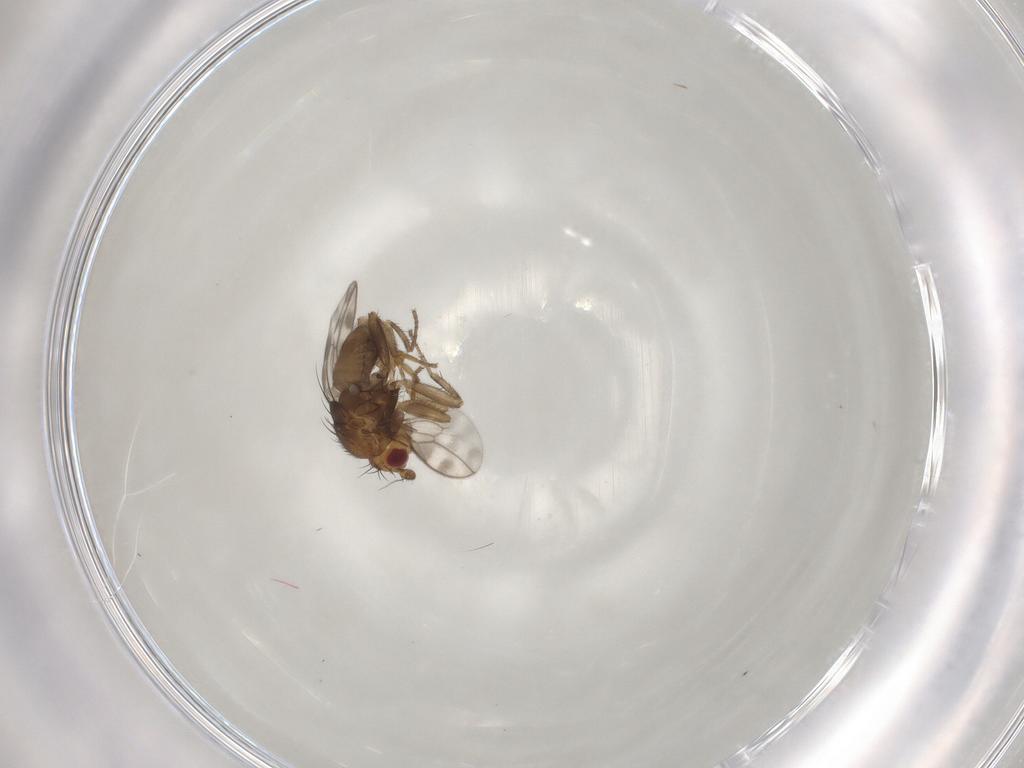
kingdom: Animalia
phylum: Arthropoda
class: Insecta
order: Diptera
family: Sphaeroceridae
